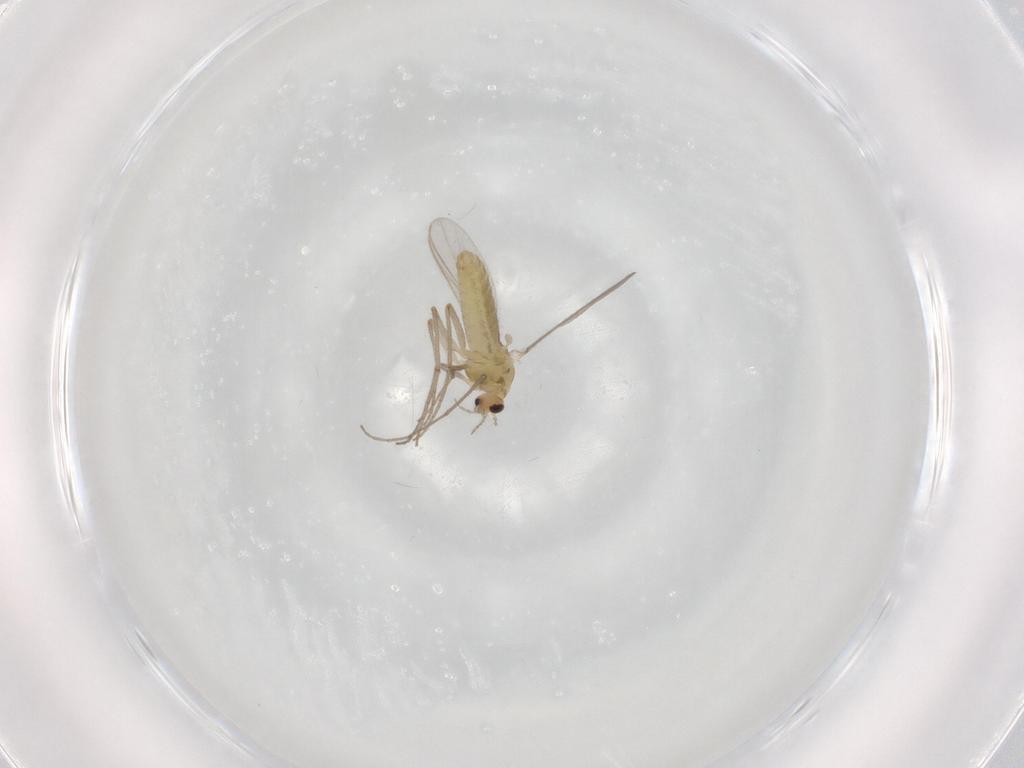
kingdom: Animalia
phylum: Arthropoda
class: Insecta
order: Diptera
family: Chironomidae
